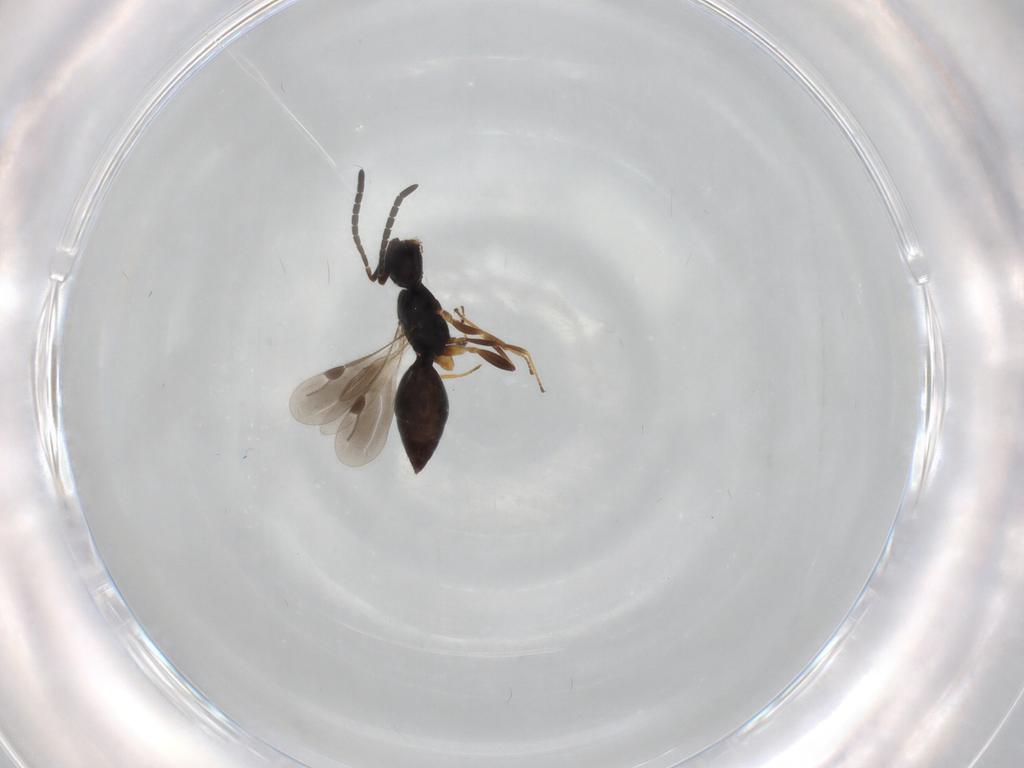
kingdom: Animalia
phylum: Arthropoda
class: Insecta
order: Hymenoptera
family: Megaspilidae
